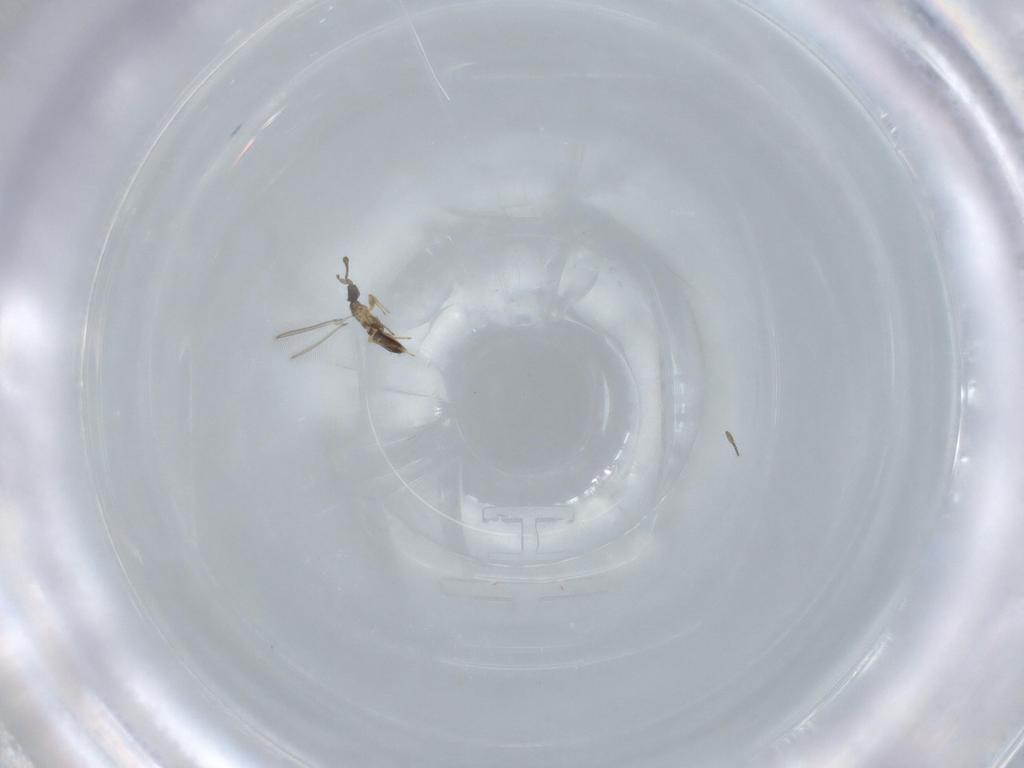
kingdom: Animalia
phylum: Arthropoda
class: Insecta
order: Hymenoptera
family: Mymaridae
